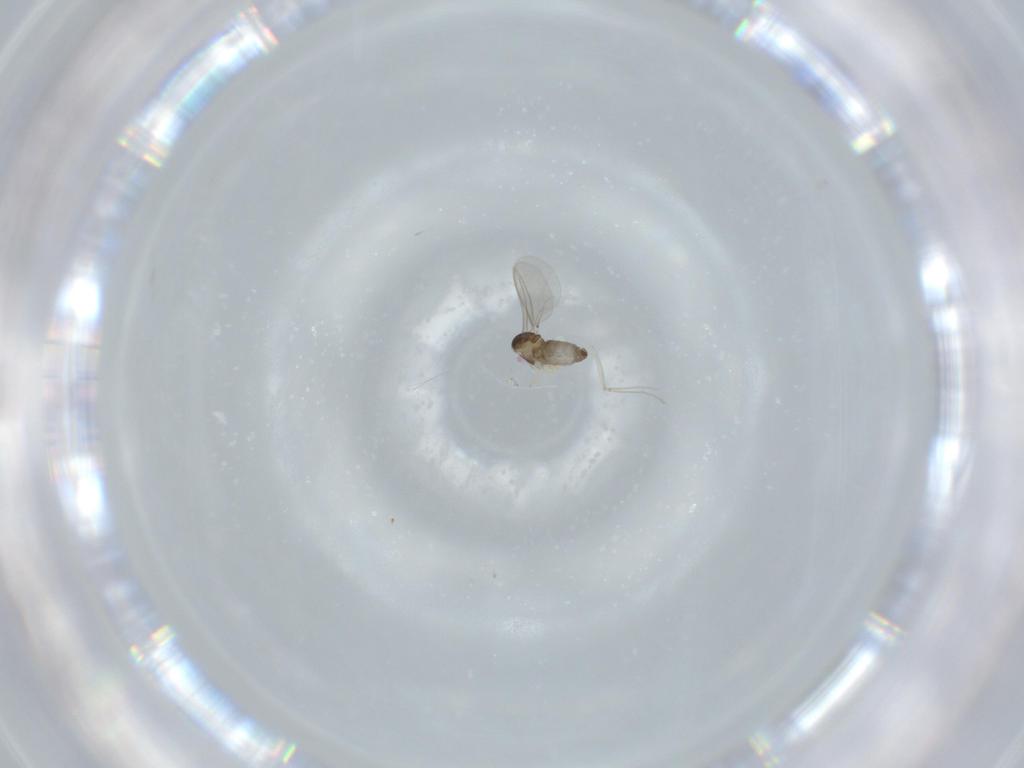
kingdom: Animalia
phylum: Arthropoda
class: Insecta
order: Diptera
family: Cecidomyiidae
